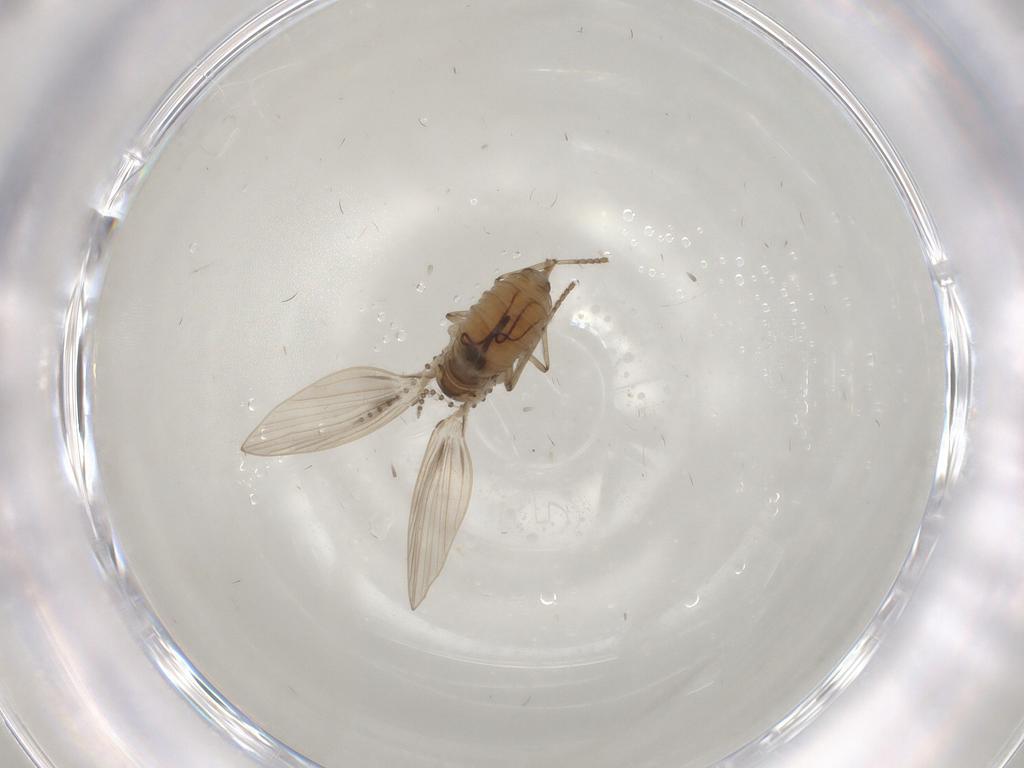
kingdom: Animalia
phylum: Arthropoda
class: Insecta
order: Diptera
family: Psychodidae
